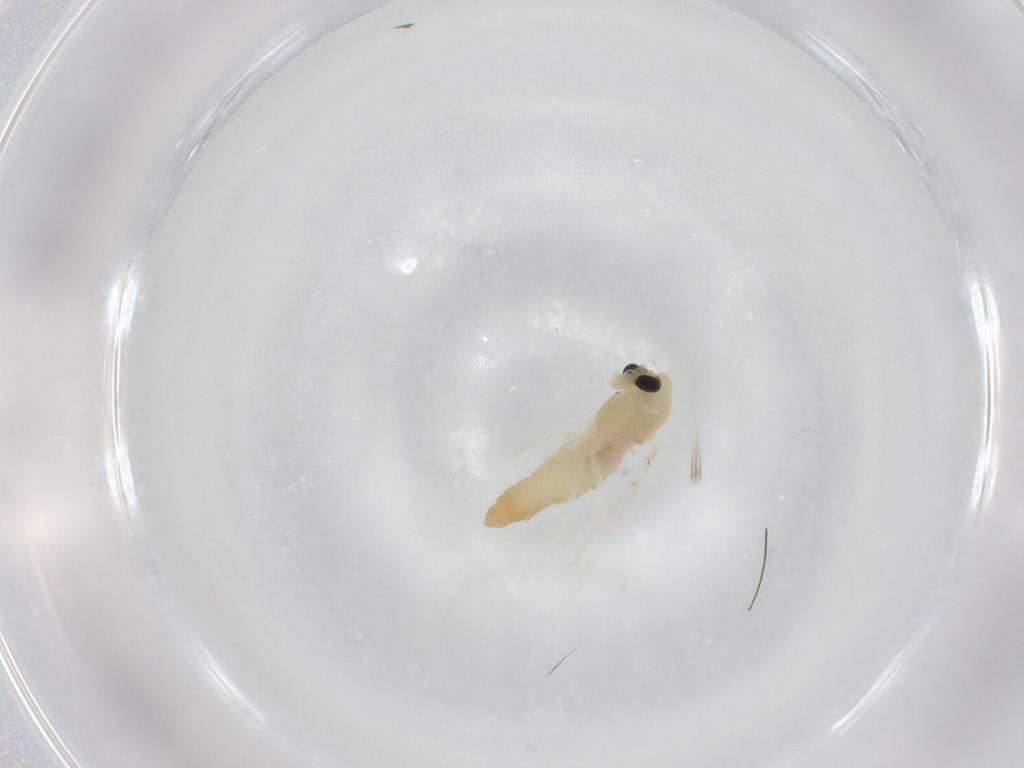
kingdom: Animalia
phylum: Arthropoda
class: Insecta
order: Diptera
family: Chironomidae
